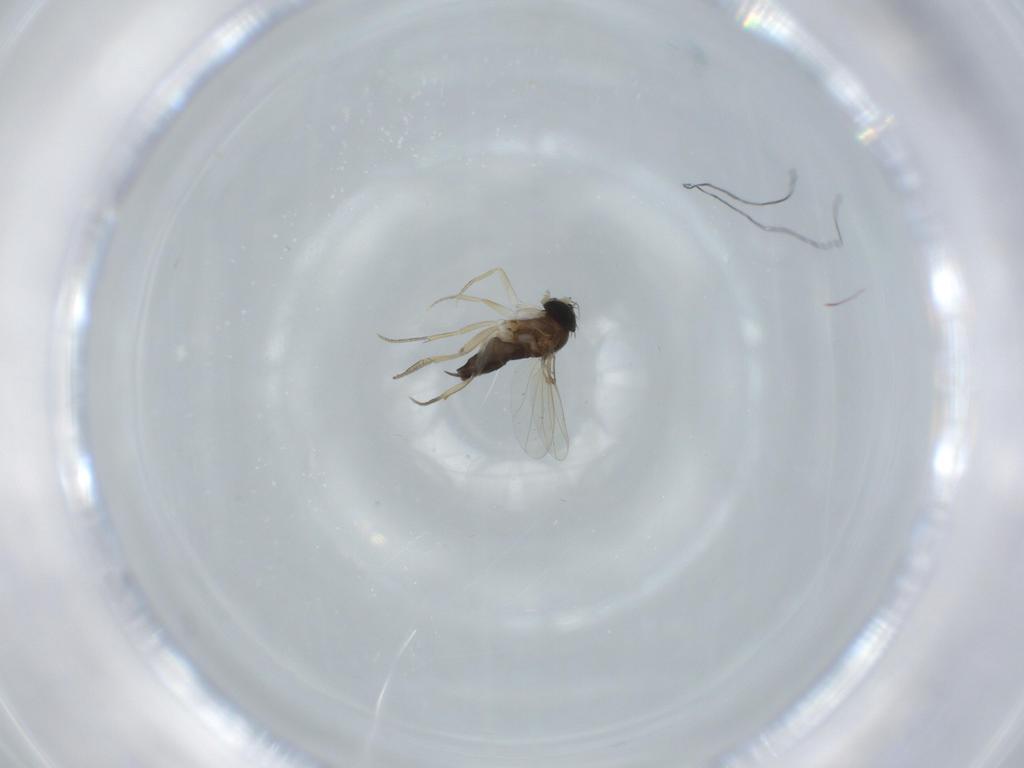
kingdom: Animalia
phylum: Arthropoda
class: Insecta
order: Diptera
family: Phoridae
